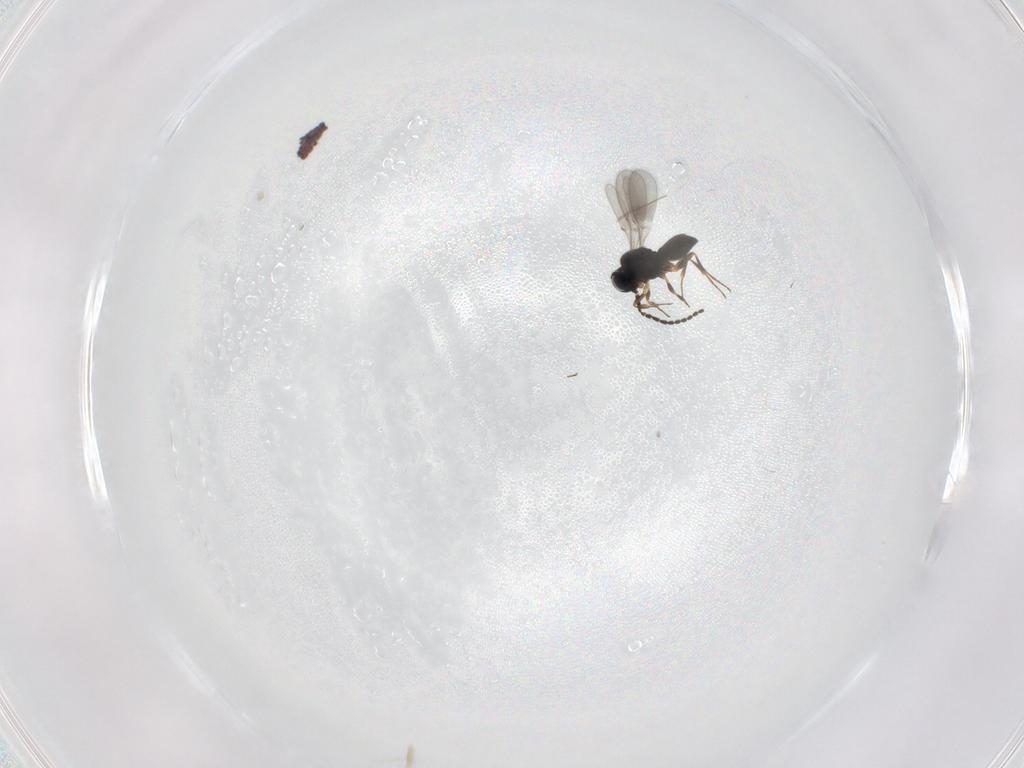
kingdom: Animalia
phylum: Arthropoda
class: Insecta
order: Hymenoptera
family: Scelionidae
